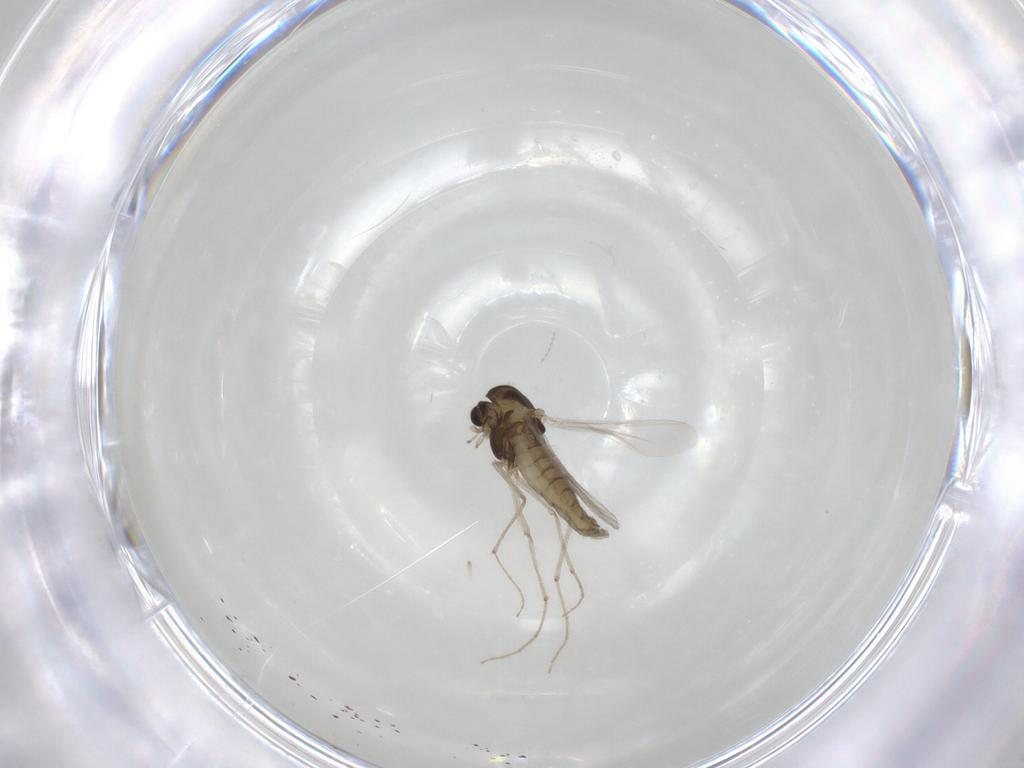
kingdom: Animalia
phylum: Arthropoda
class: Insecta
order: Diptera
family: Chironomidae
